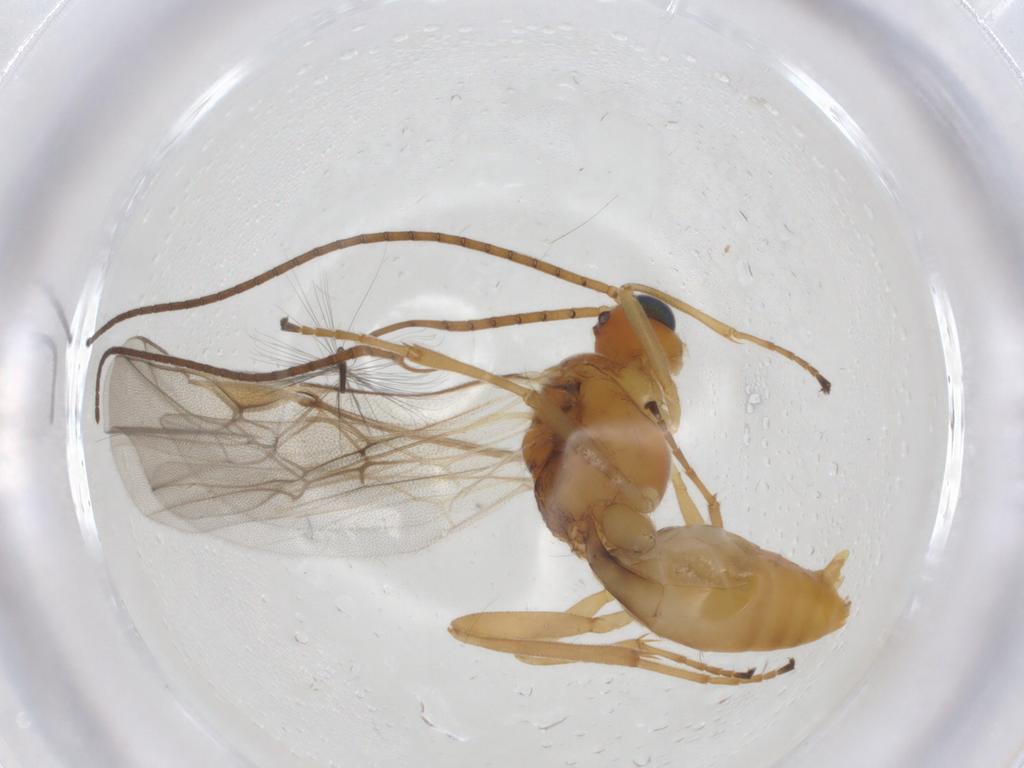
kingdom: Animalia
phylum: Arthropoda
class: Insecta
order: Hymenoptera
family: Braconidae
